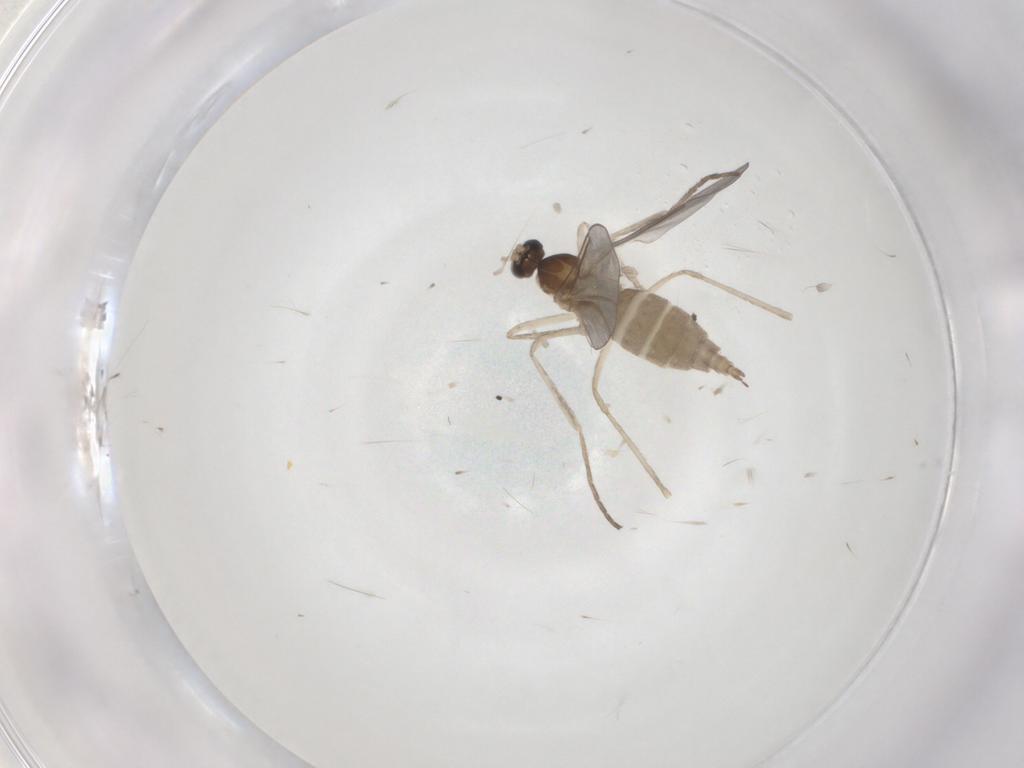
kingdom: Animalia
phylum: Arthropoda
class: Insecta
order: Diptera
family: Cecidomyiidae
